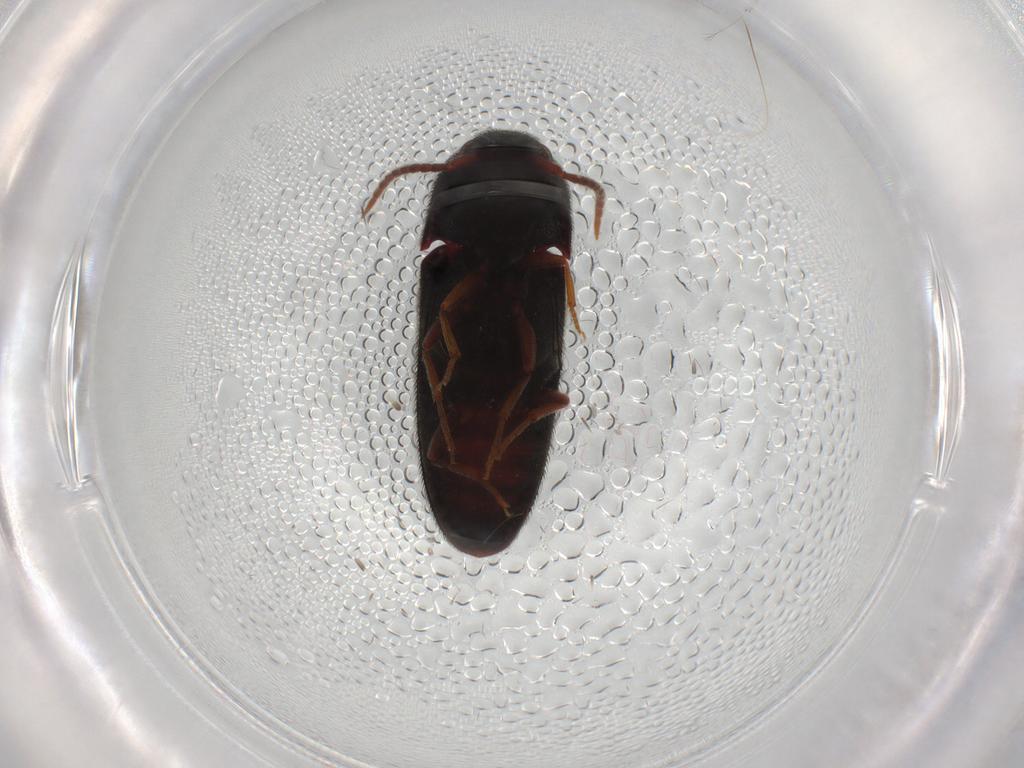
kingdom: Animalia
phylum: Arthropoda
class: Insecta
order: Coleoptera
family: Eucnemidae
